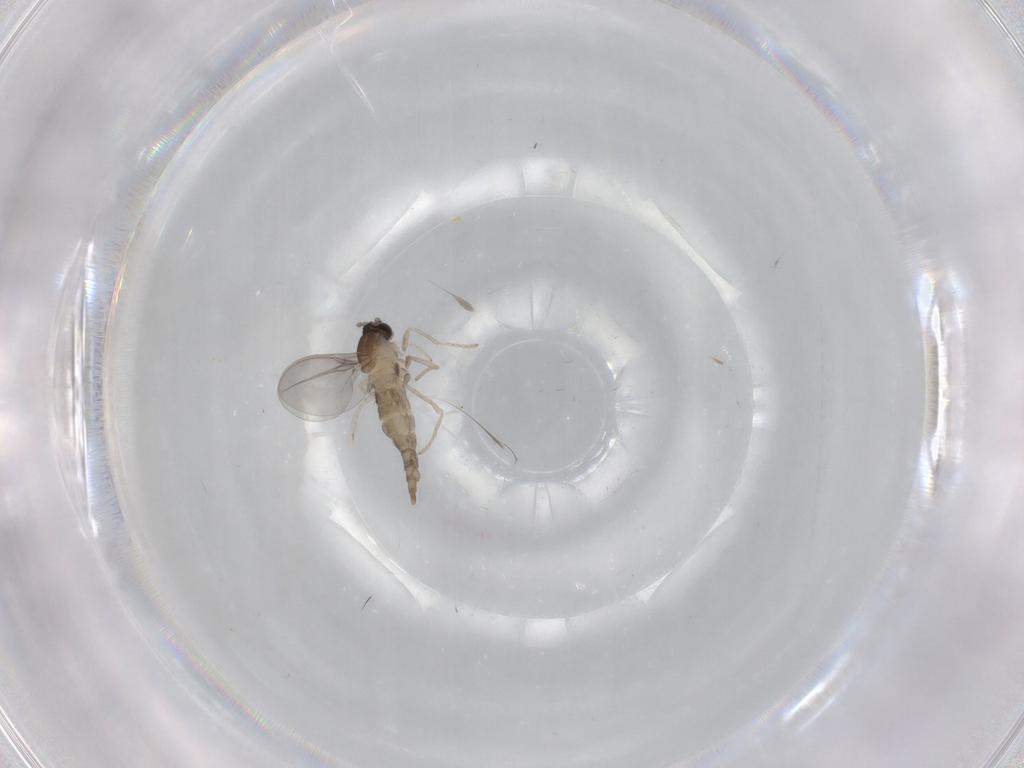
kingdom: Animalia
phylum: Arthropoda
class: Insecta
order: Diptera
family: Cecidomyiidae
